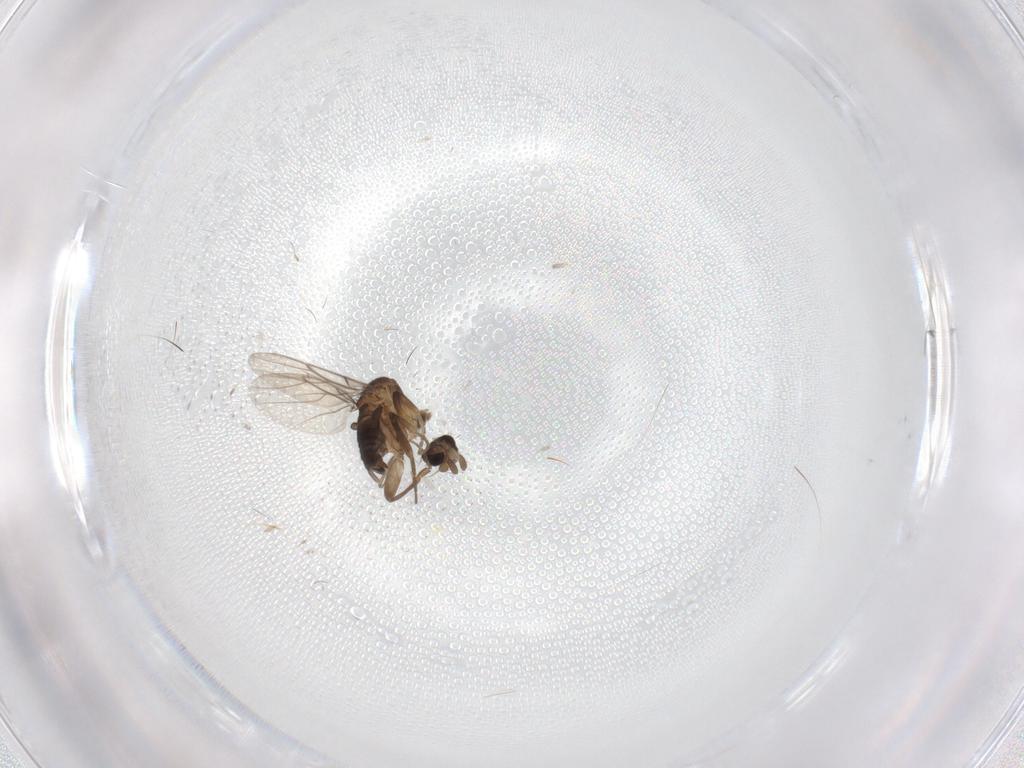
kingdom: Animalia
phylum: Arthropoda
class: Insecta
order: Diptera
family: Phoridae
